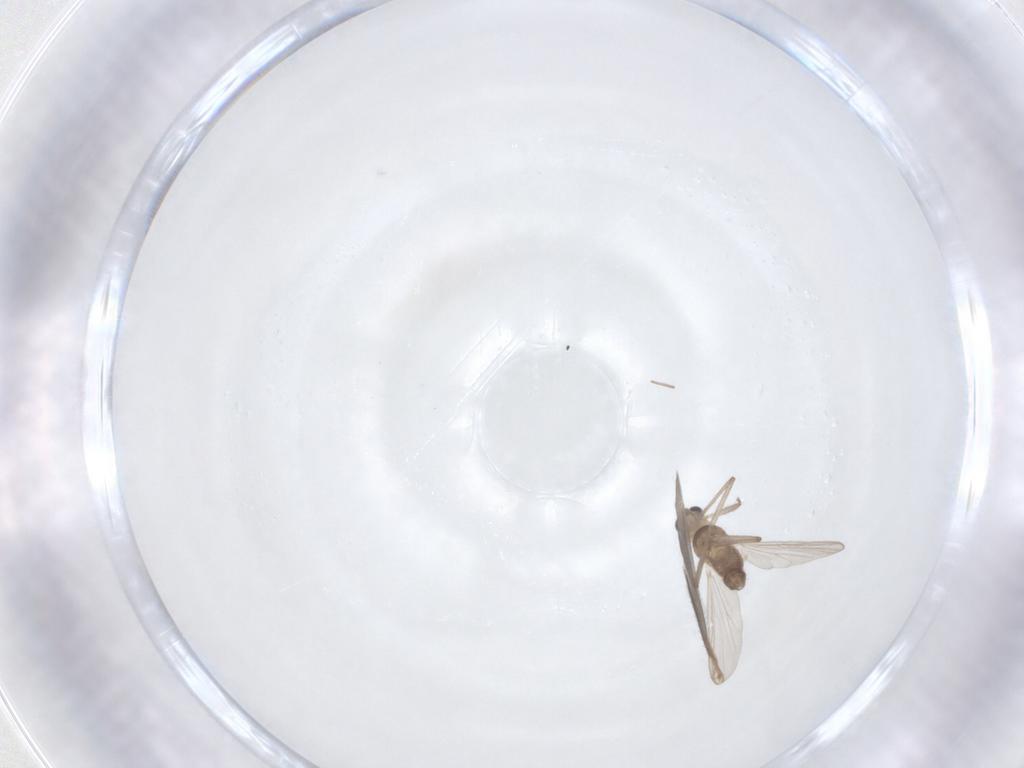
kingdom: Animalia
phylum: Arthropoda
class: Insecta
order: Diptera
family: Chironomidae
